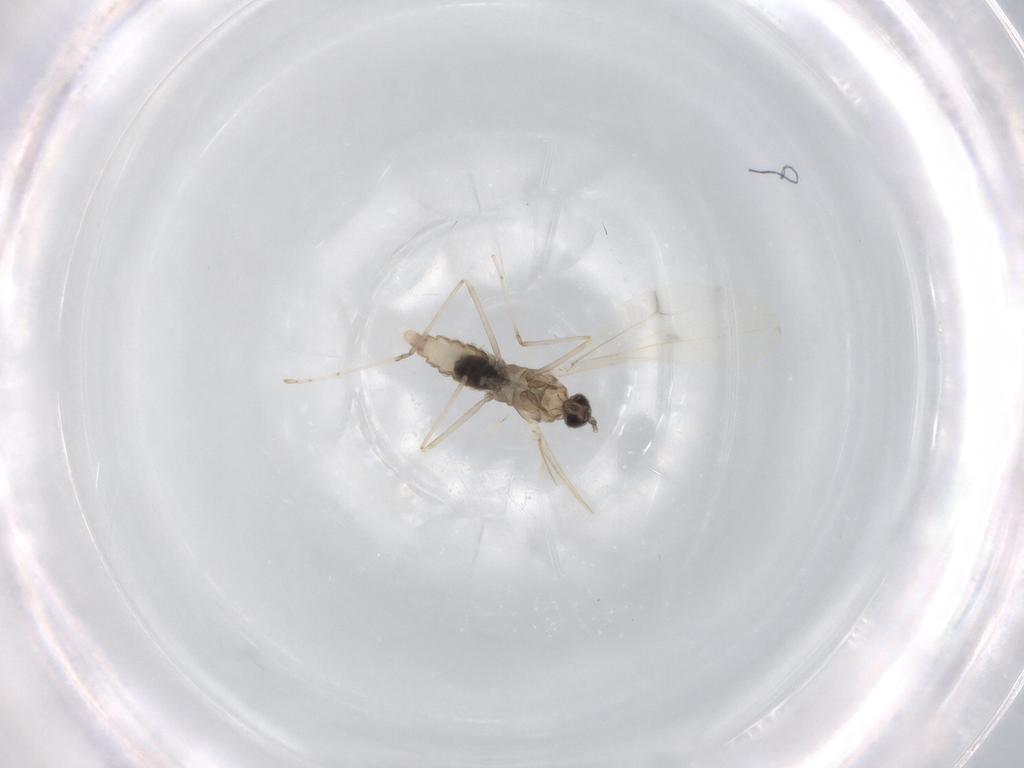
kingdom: Animalia
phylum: Arthropoda
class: Insecta
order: Diptera
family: Cecidomyiidae
